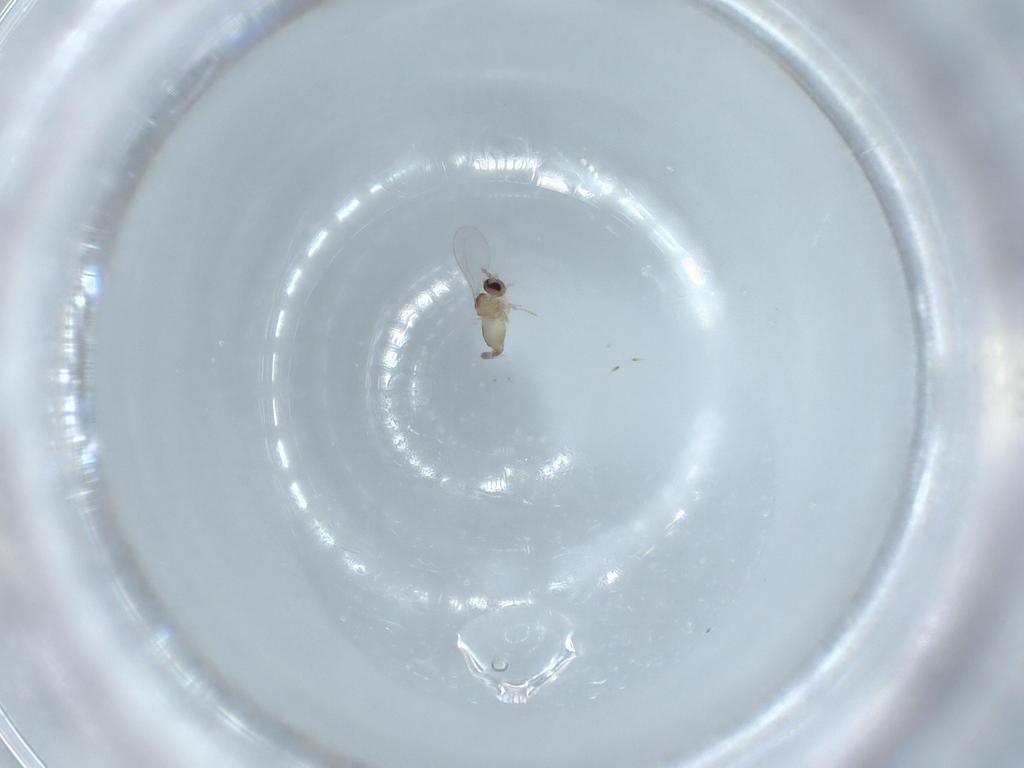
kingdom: Animalia
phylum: Arthropoda
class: Insecta
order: Diptera
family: Cecidomyiidae
